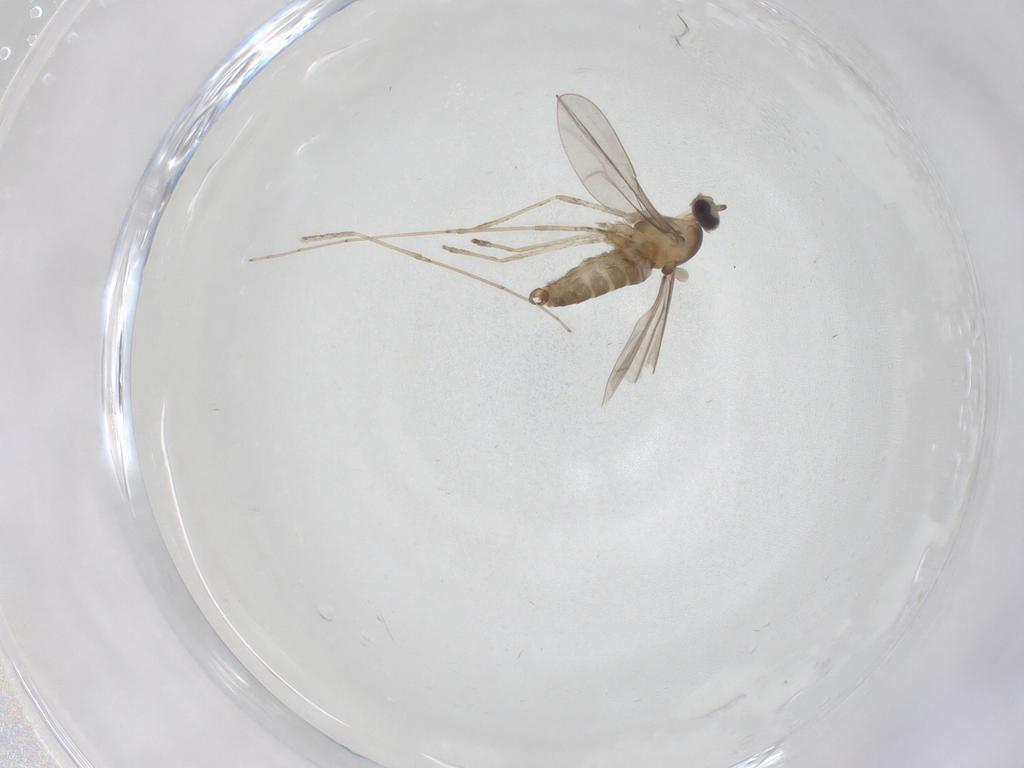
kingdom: Animalia
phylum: Arthropoda
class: Insecta
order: Diptera
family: Cecidomyiidae
